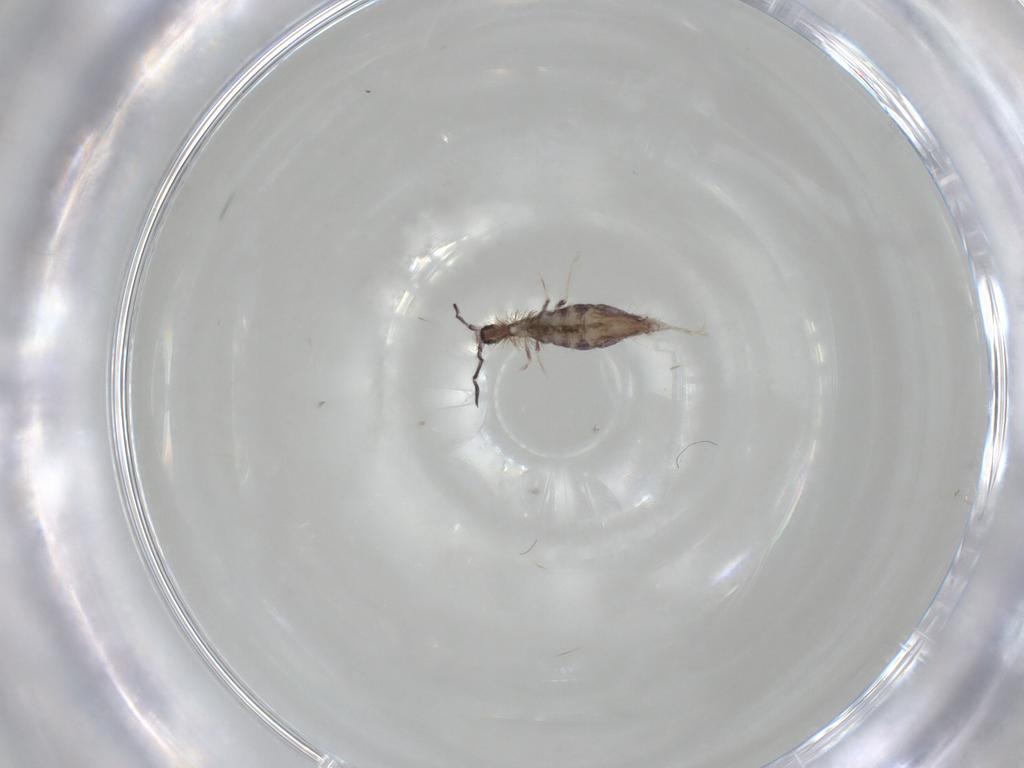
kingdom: Animalia
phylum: Arthropoda
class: Collembola
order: Poduromorpha
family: Hypogastruridae
